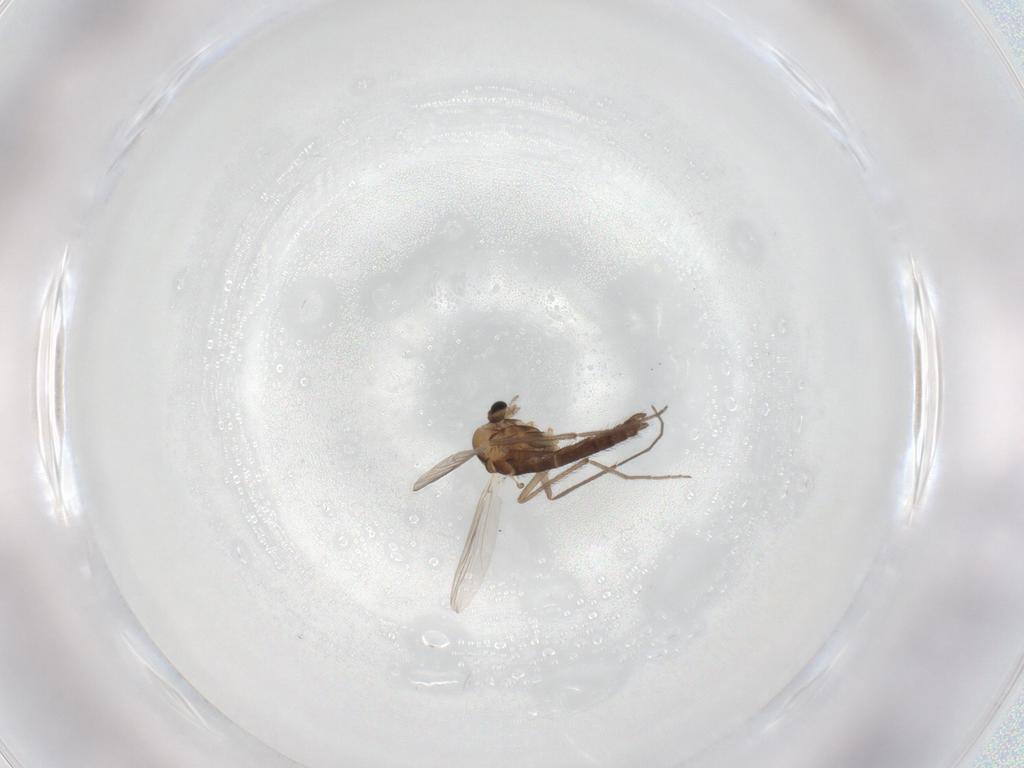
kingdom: Animalia
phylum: Arthropoda
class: Insecta
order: Diptera
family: Chironomidae
